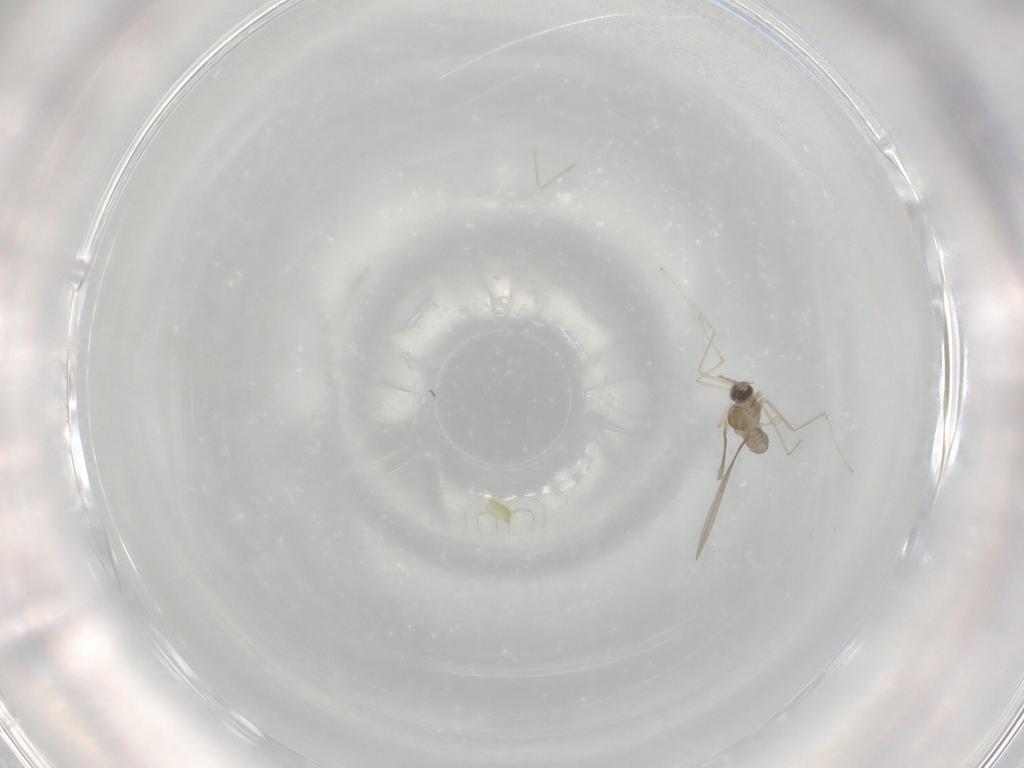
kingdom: Animalia
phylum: Arthropoda
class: Insecta
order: Diptera
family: Cecidomyiidae
